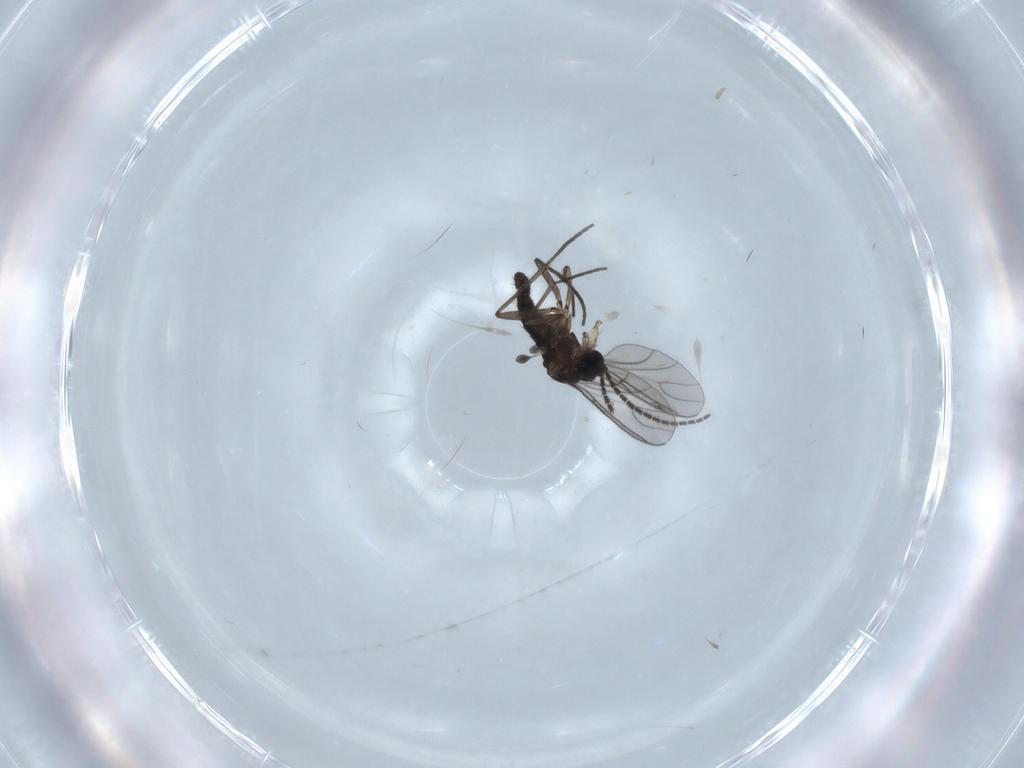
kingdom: Animalia
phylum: Arthropoda
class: Insecta
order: Diptera
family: Sciaridae
